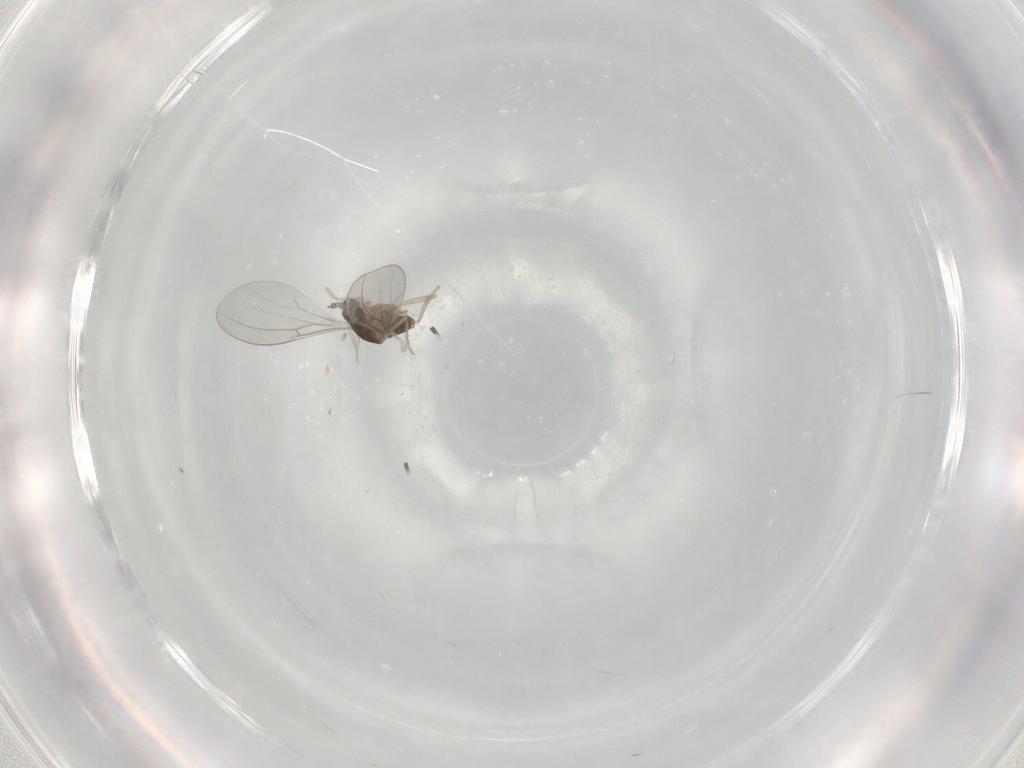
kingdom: Animalia
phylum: Arthropoda
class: Insecta
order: Diptera
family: Cecidomyiidae
